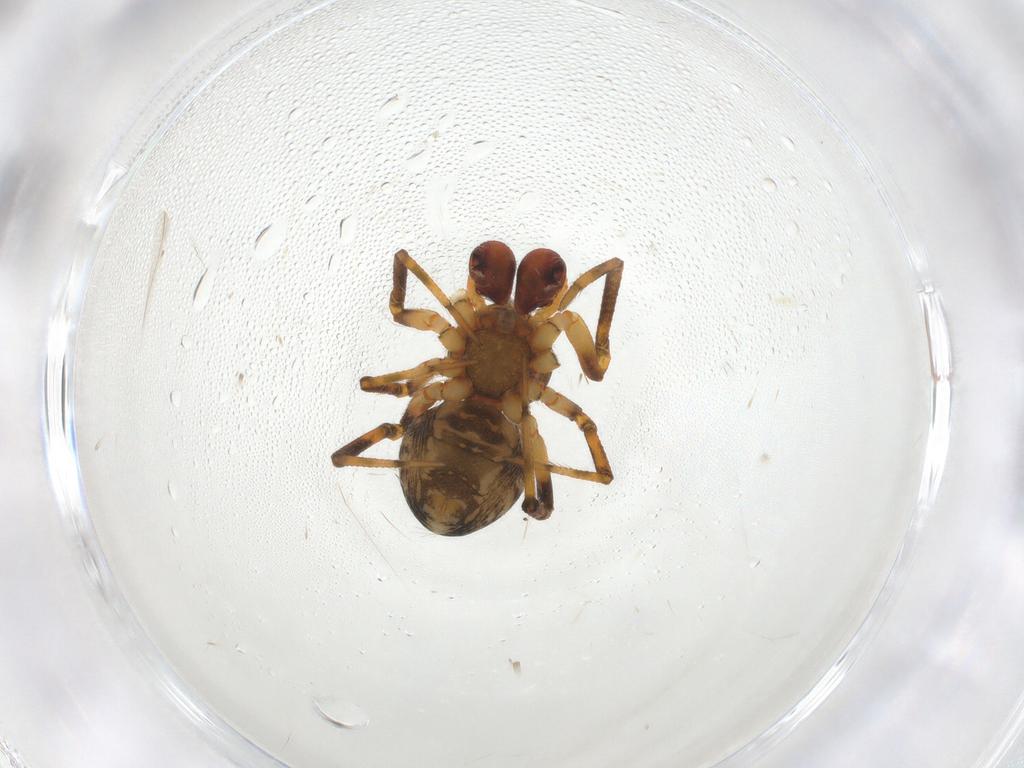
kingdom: Animalia
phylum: Arthropoda
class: Arachnida
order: Araneae
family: Theridiidae
